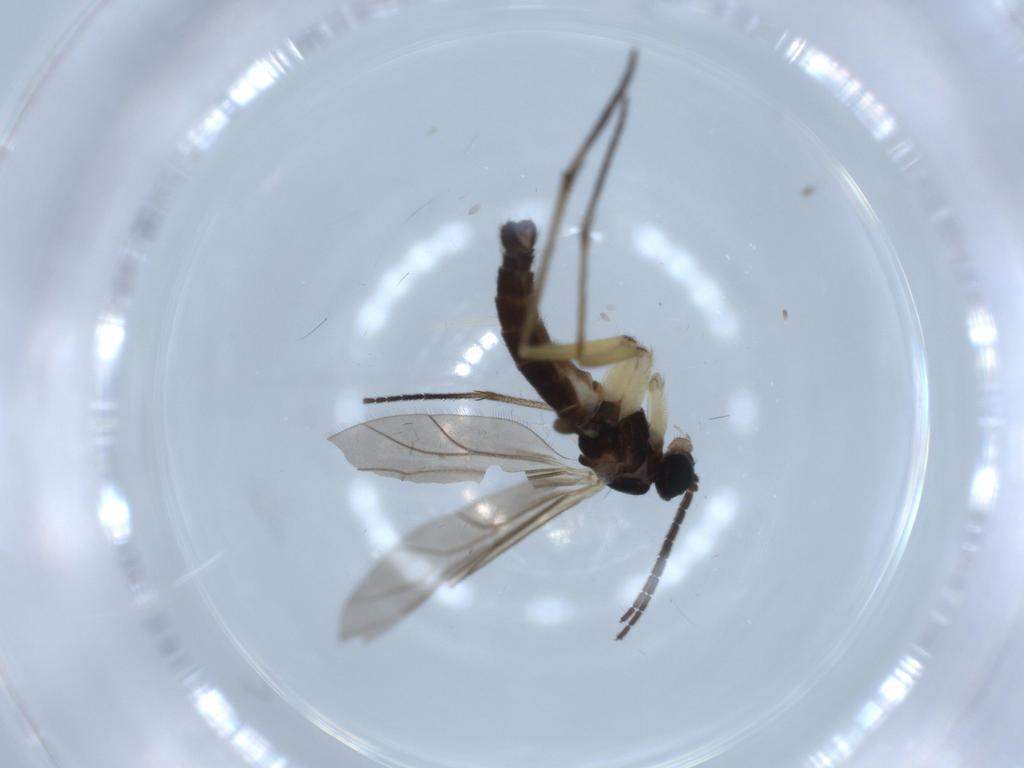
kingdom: Animalia
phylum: Arthropoda
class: Insecta
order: Diptera
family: Sciaridae
